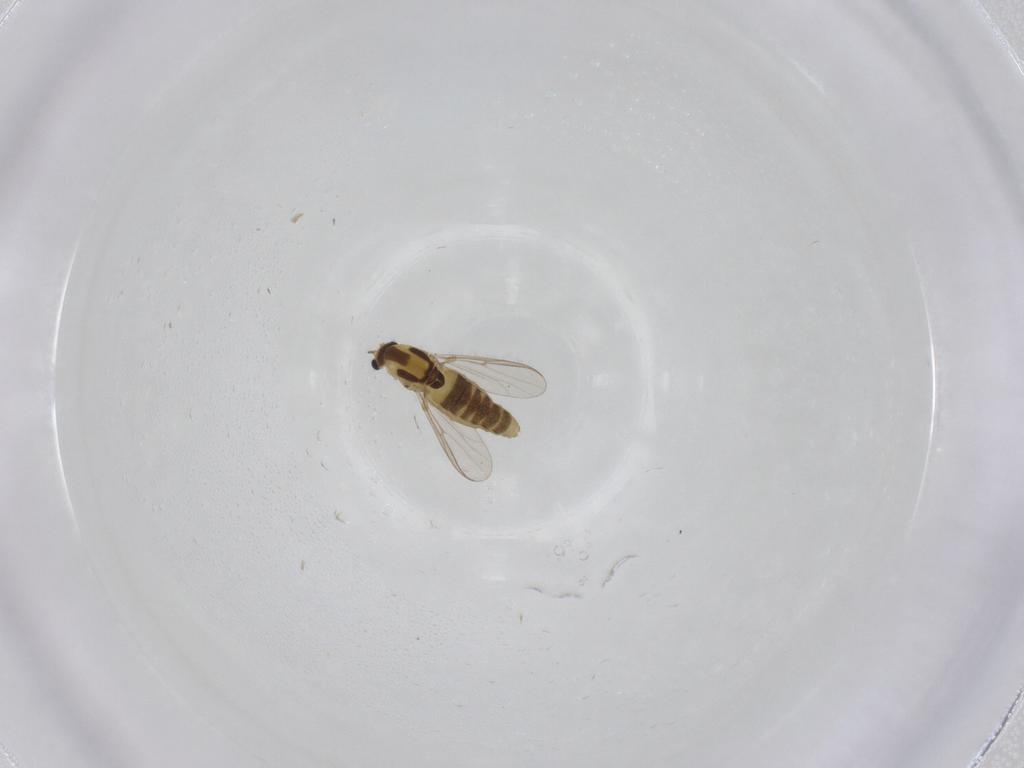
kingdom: Animalia
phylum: Arthropoda
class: Insecta
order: Diptera
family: Chironomidae
